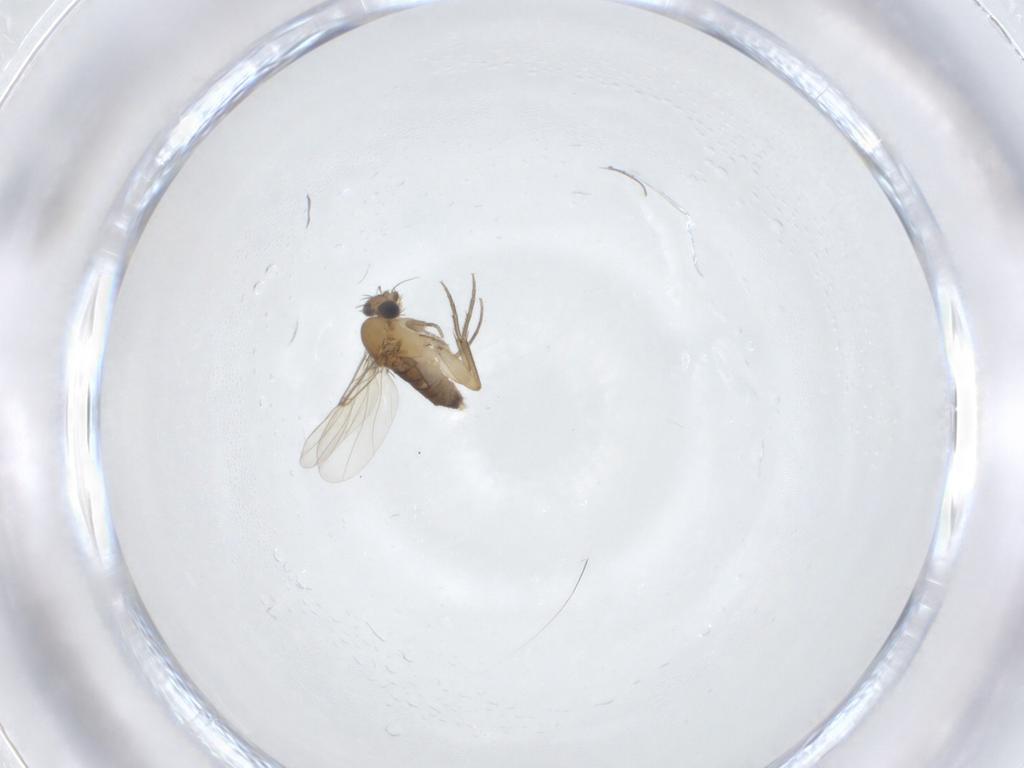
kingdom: Animalia
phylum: Arthropoda
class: Insecta
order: Diptera
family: Phoridae
